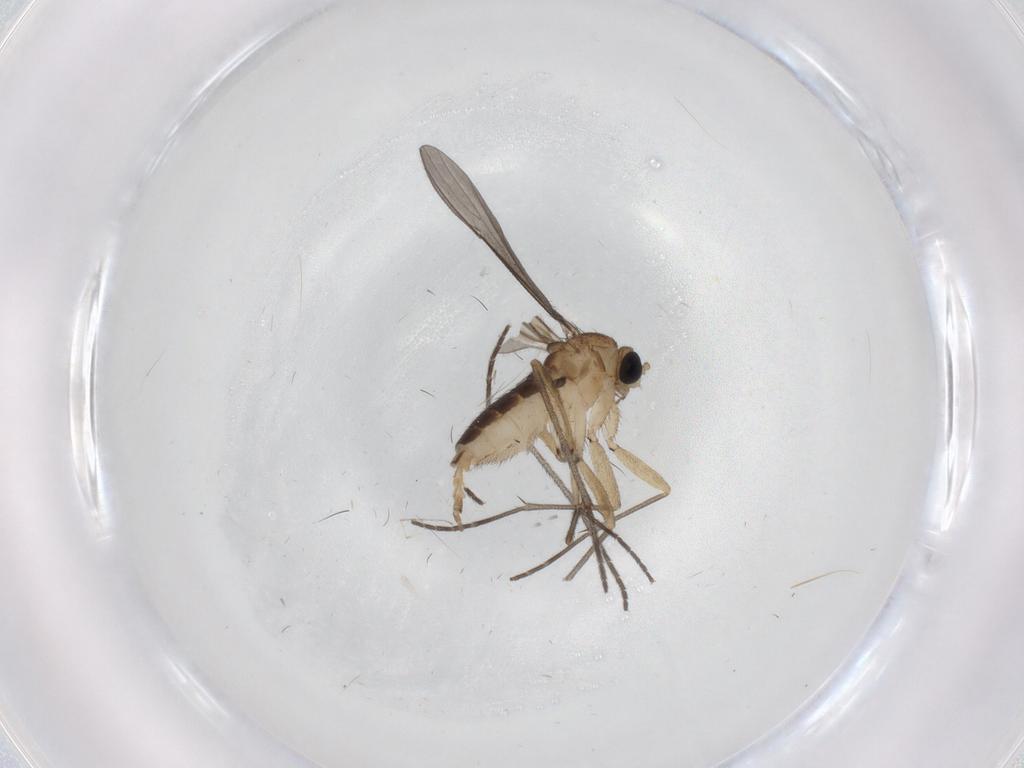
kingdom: Animalia
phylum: Arthropoda
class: Insecta
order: Diptera
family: Sciaridae
